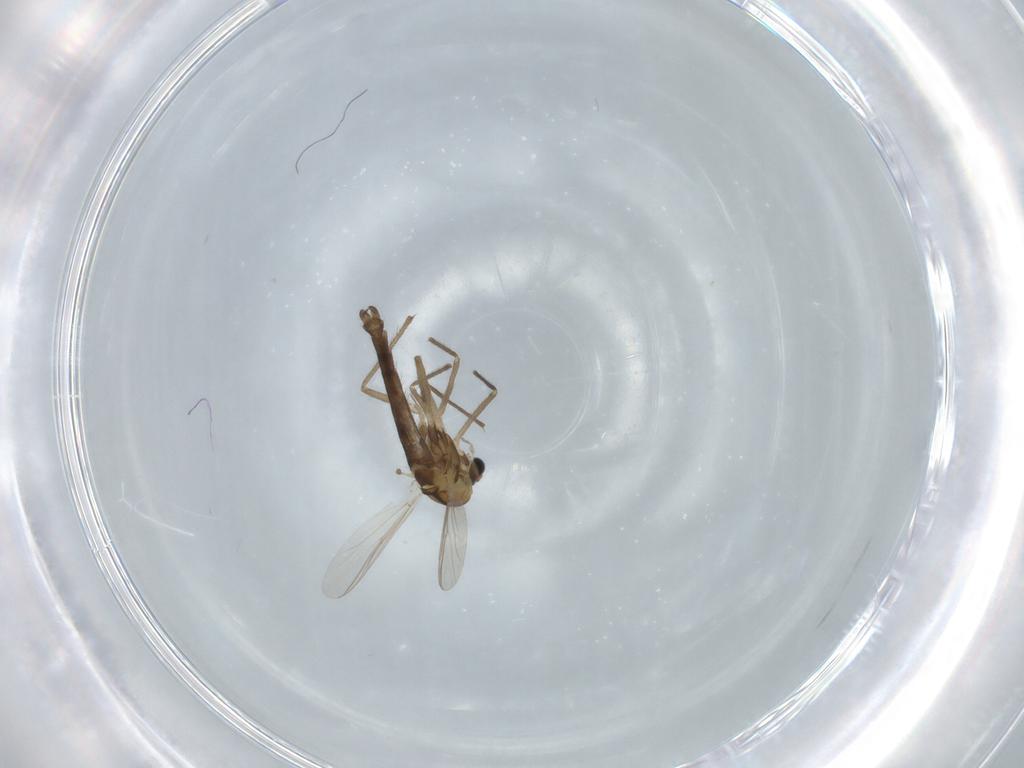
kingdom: Animalia
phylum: Arthropoda
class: Insecta
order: Diptera
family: Chironomidae
